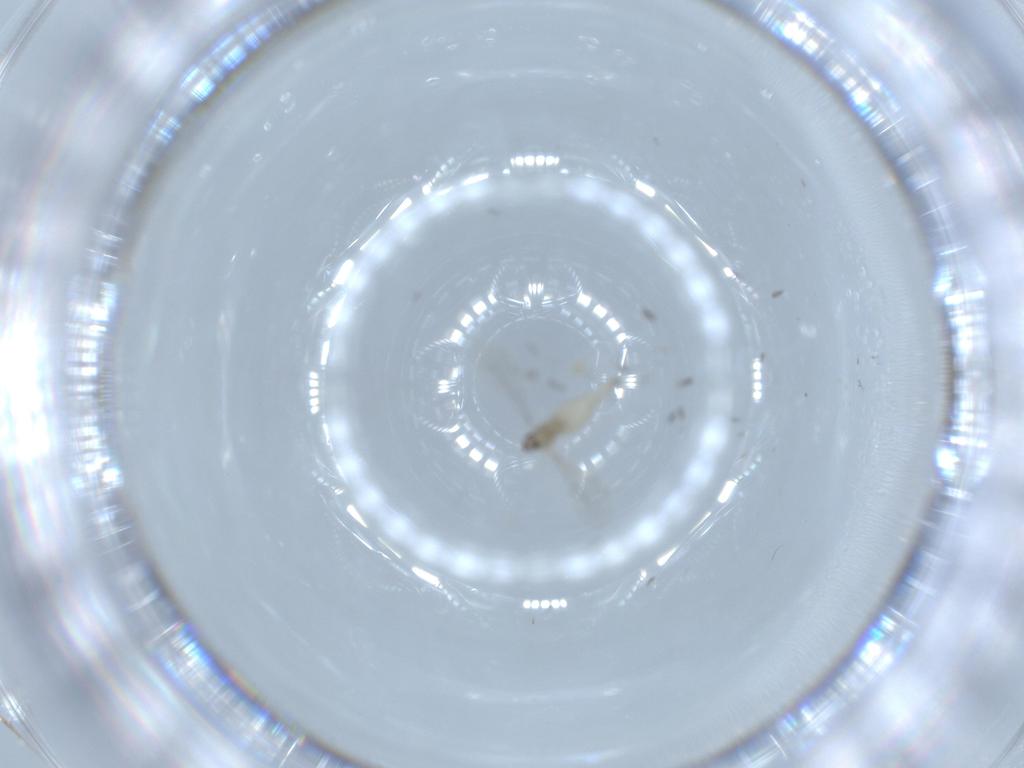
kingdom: Animalia
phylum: Arthropoda
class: Insecta
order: Diptera
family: Cecidomyiidae
